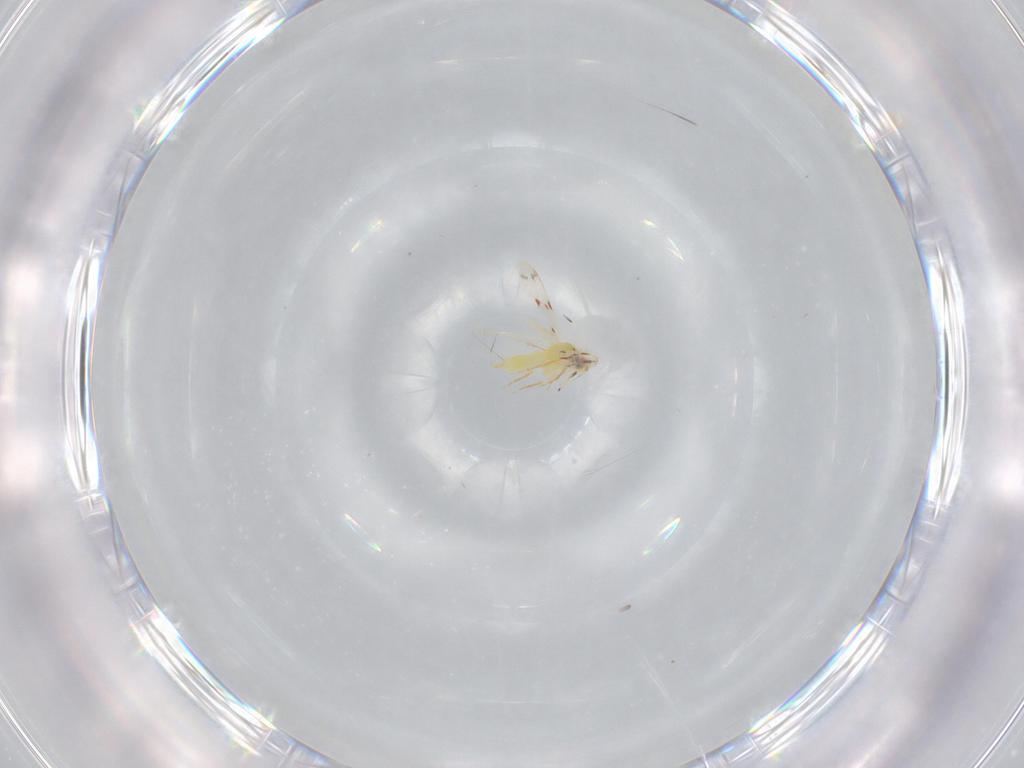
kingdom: Animalia
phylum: Arthropoda
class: Insecta
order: Hemiptera
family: Aleyrodidae
